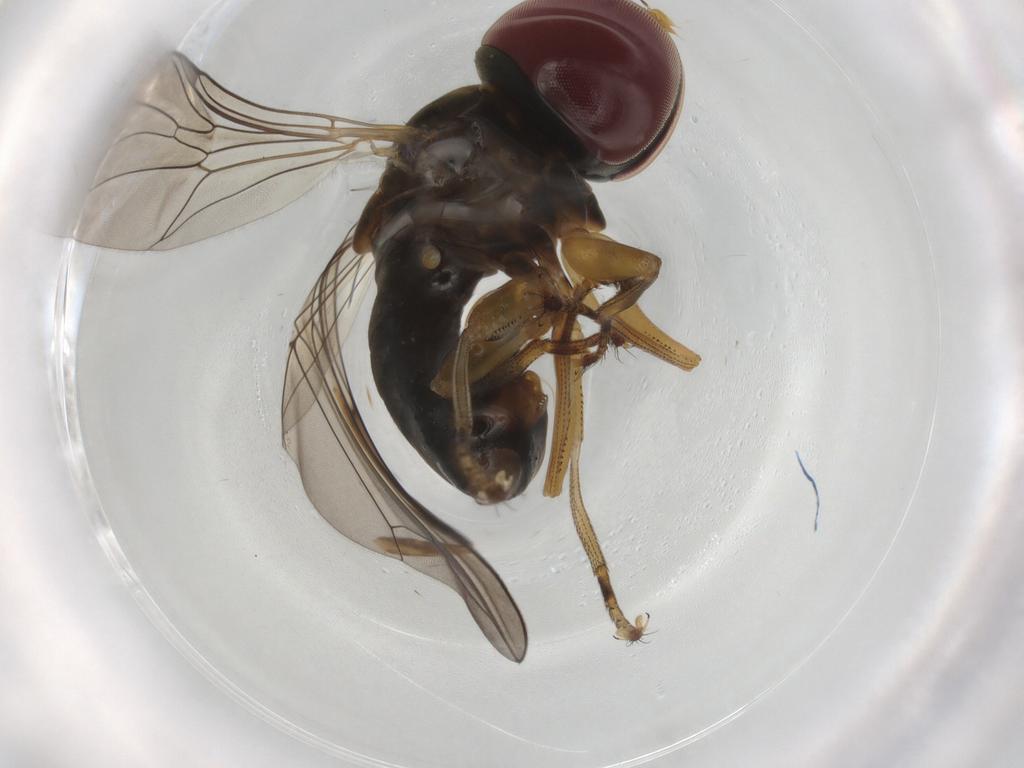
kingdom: Animalia
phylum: Arthropoda
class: Insecta
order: Diptera
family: Pipunculidae
